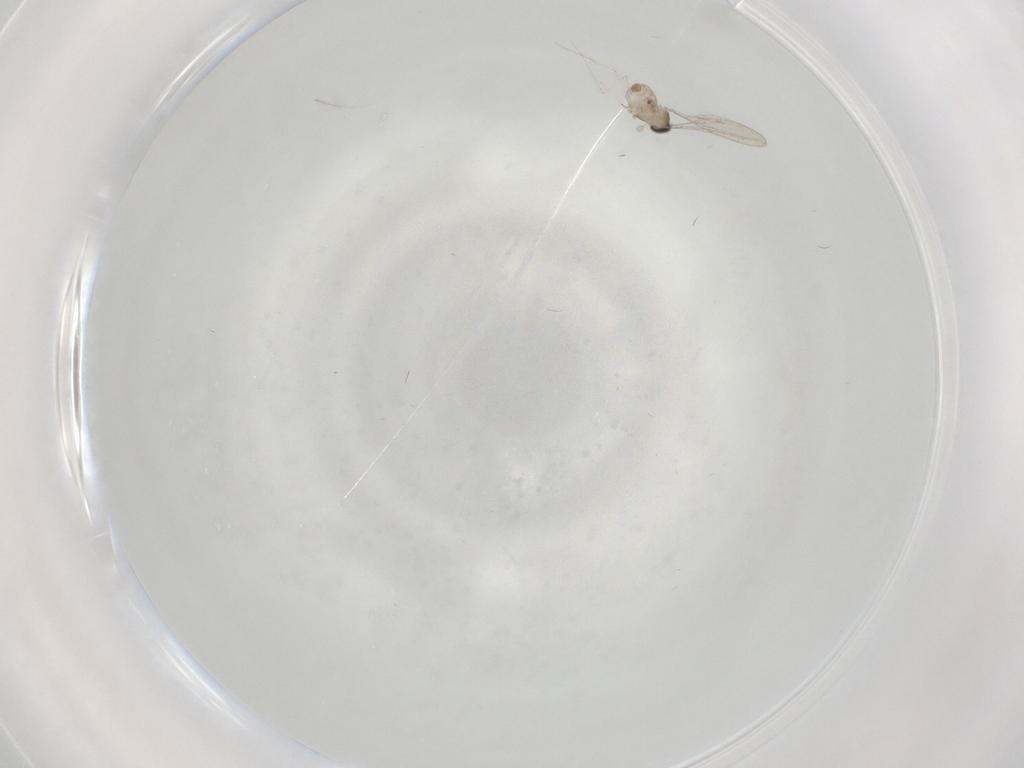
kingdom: Animalia
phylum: Arthropoda
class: Insecta
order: Diptera
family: Cecidomyiidae
